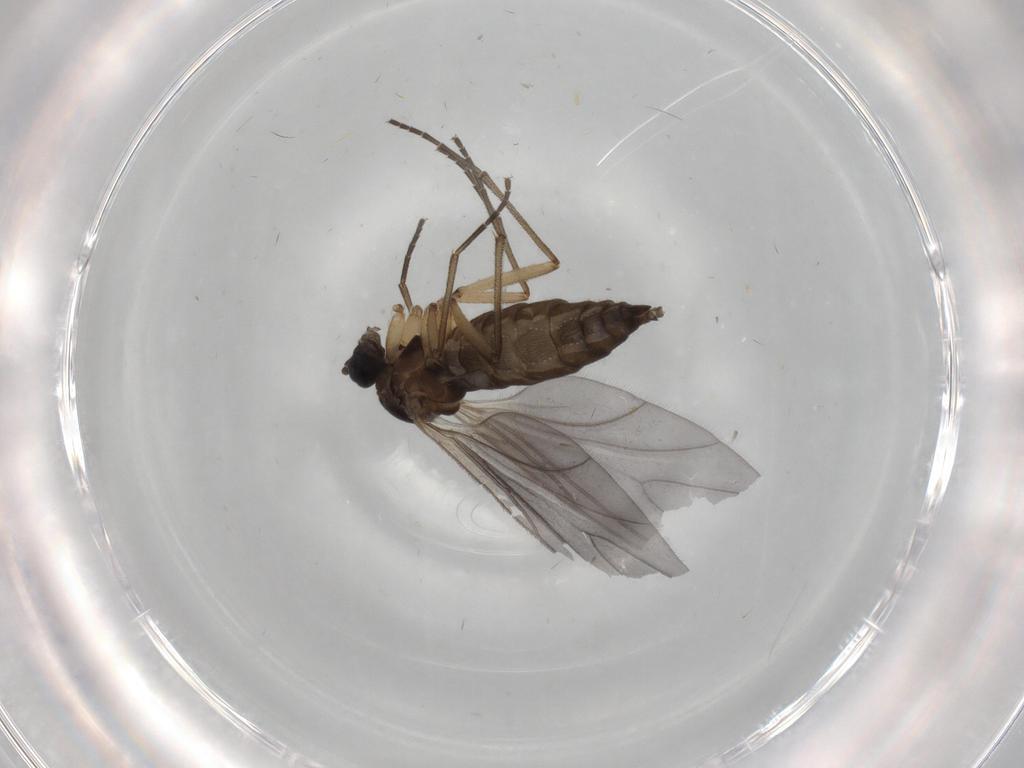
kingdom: Animalia
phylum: Arthropoda
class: Insecta
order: Diptera
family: Sciaridae
